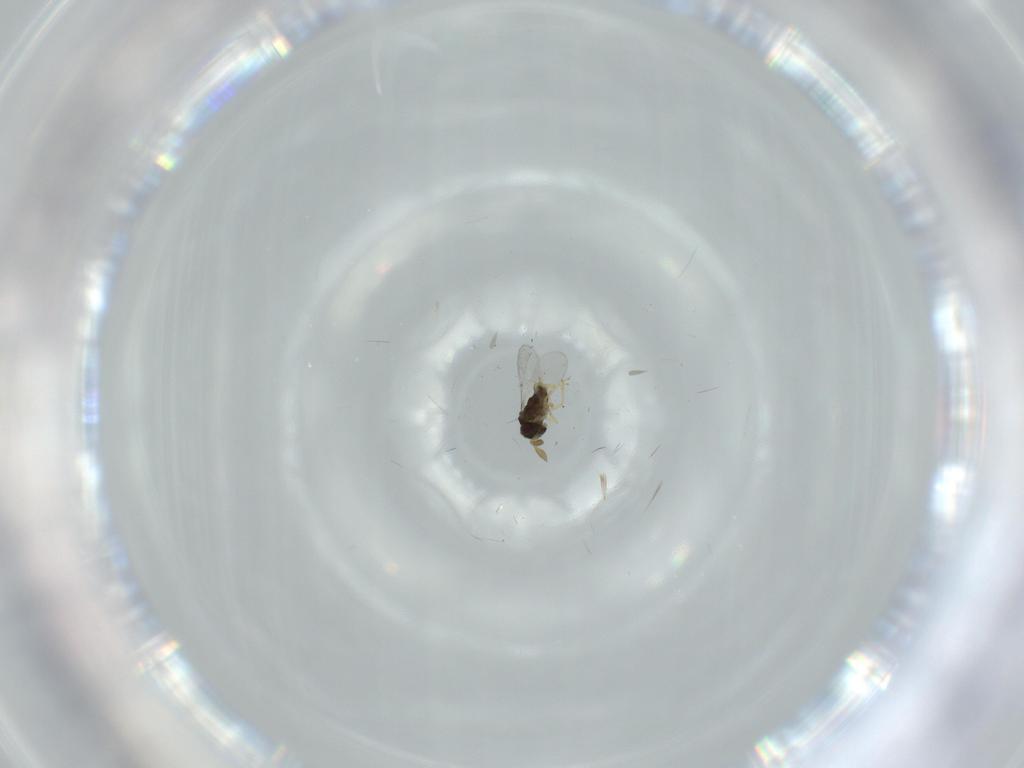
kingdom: Animalia
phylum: Arthropoda
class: Insecta
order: Hymenoptera
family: Encyrtidae
